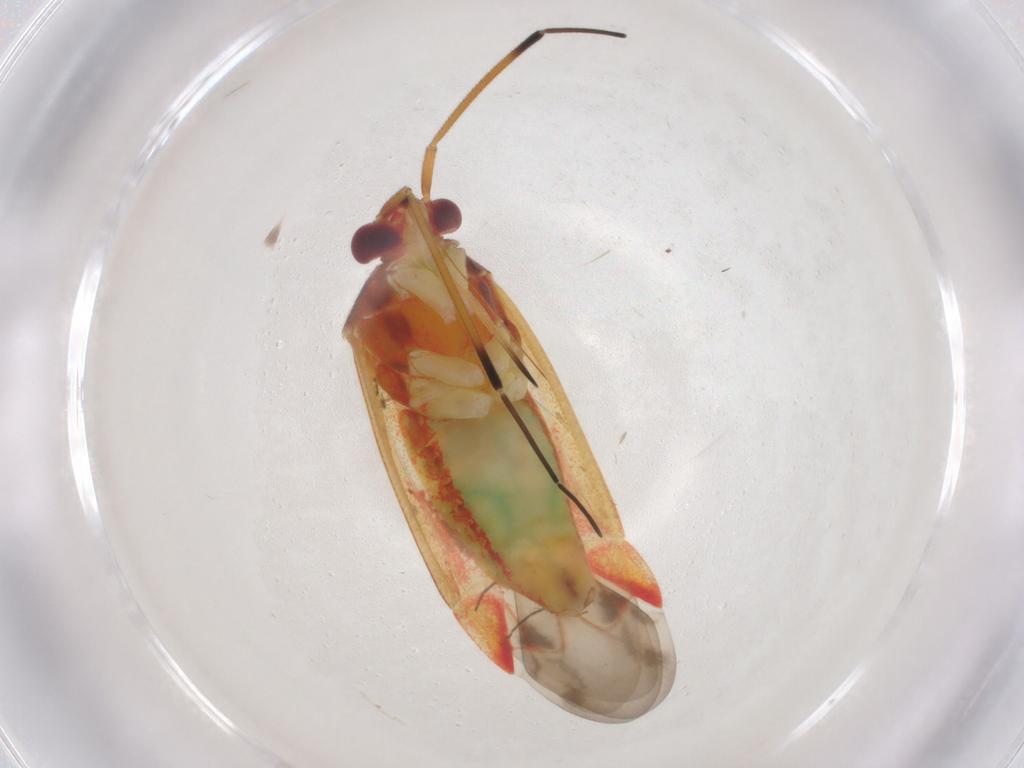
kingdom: Animalia
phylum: Arthropoda
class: Insecta
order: Hemiptera
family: Miridae
